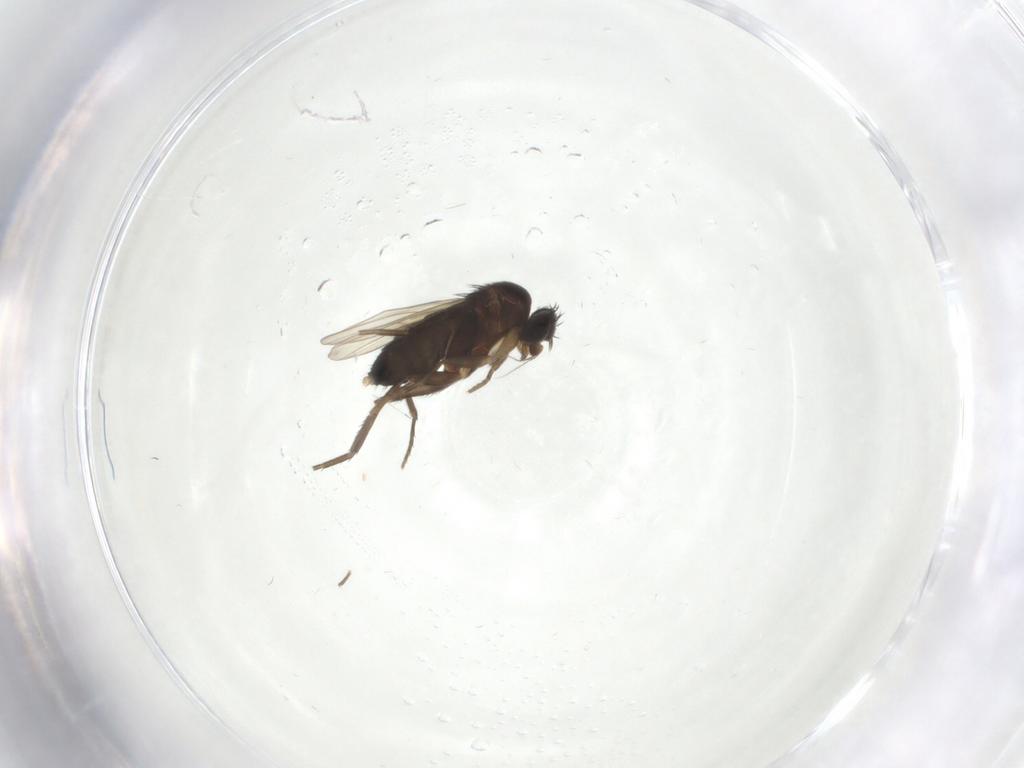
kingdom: Animalia
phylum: Arthropoda
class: Insecta
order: Diptera
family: Phoridae
